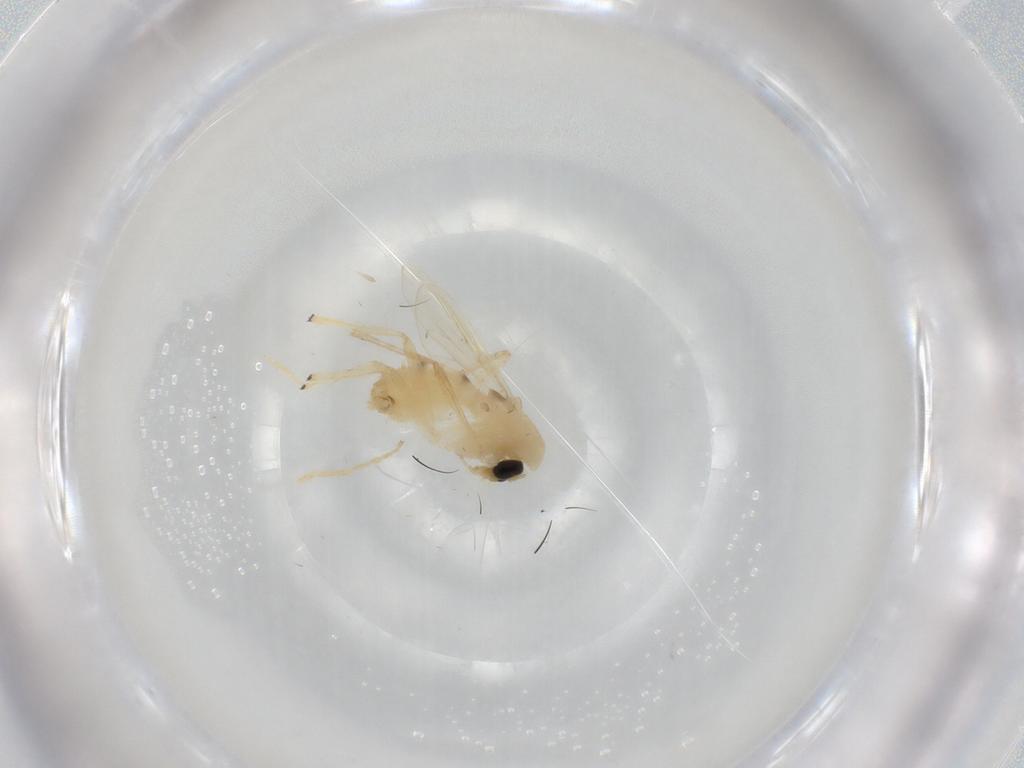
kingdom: Animalia
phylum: Arthropoda
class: Insecta
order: Diptera
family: Chironomidae
